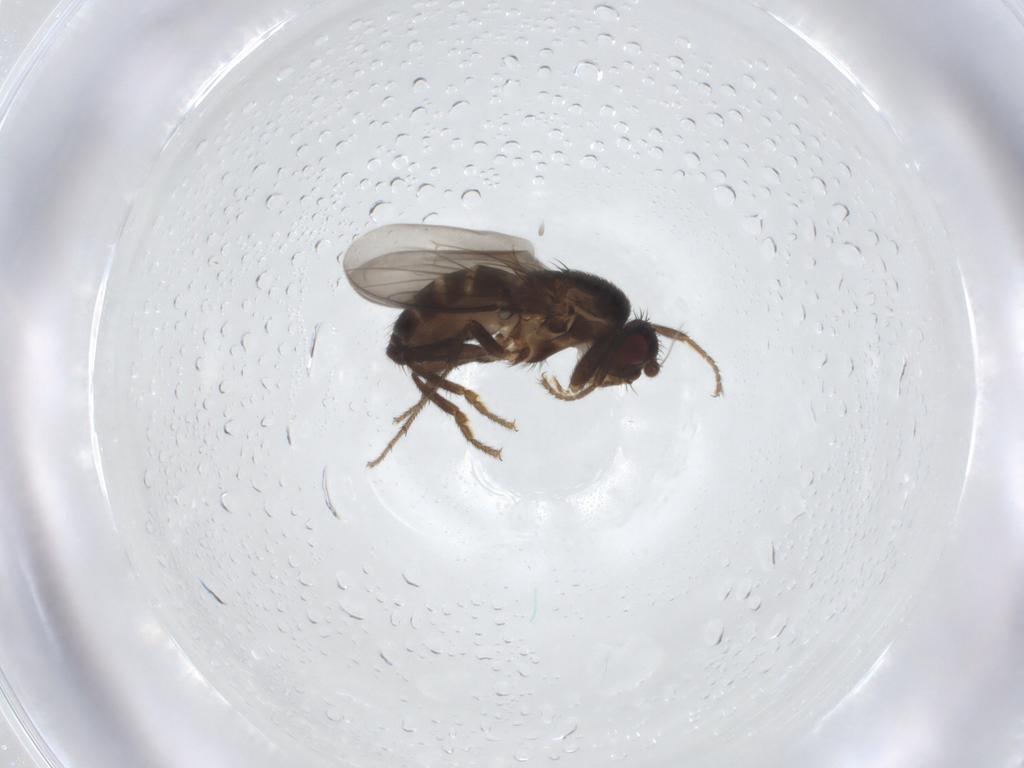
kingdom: Animalia
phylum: Arthropoda
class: Insecta
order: Diptera
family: Sphaeroceridae
